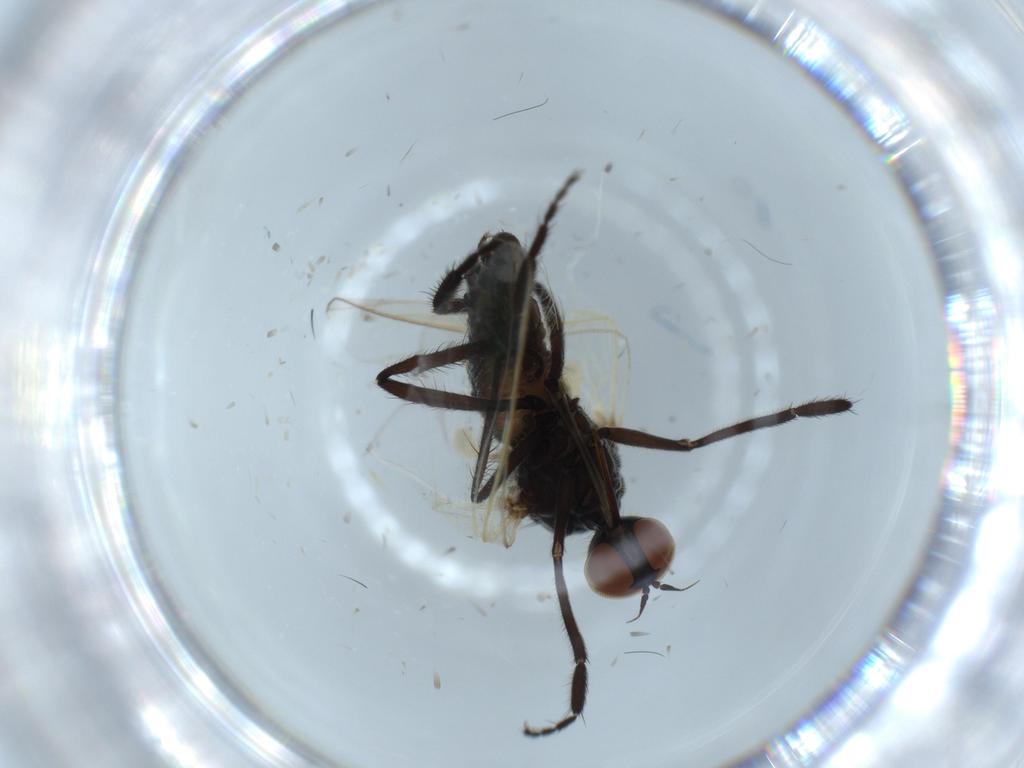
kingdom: Animalia
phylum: Arthropoda
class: Insecta
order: Diptera
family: Empididae
